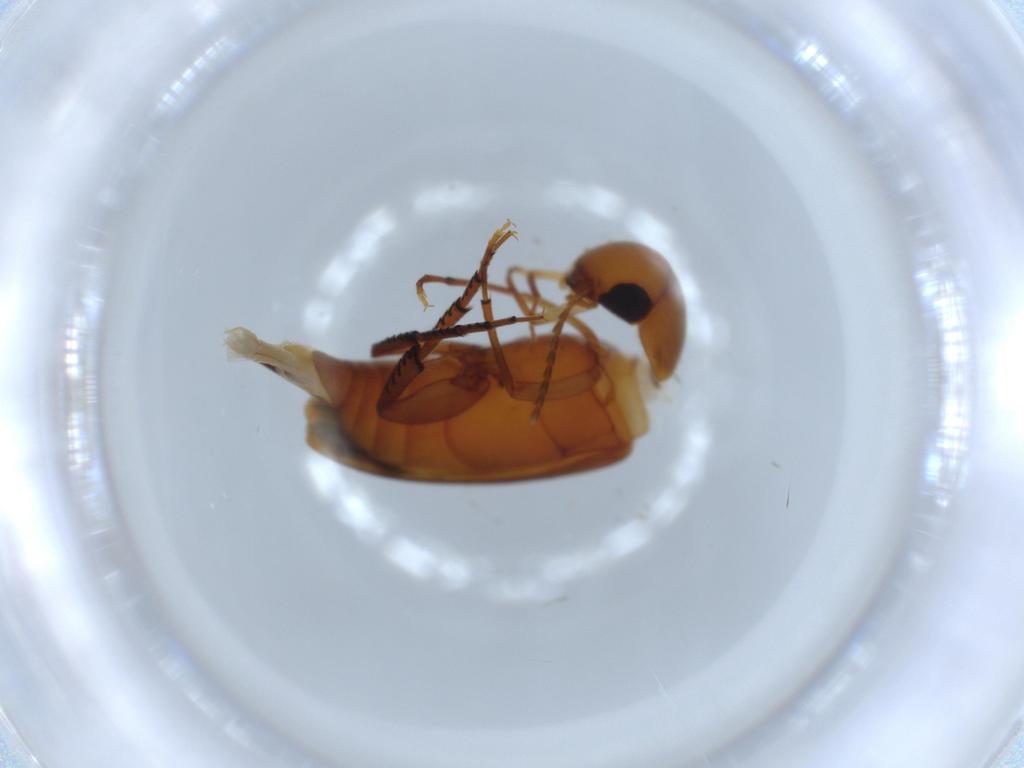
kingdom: Animalia
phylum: Arthropoda
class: Insecta
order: Coleoptera
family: Mordellidae
